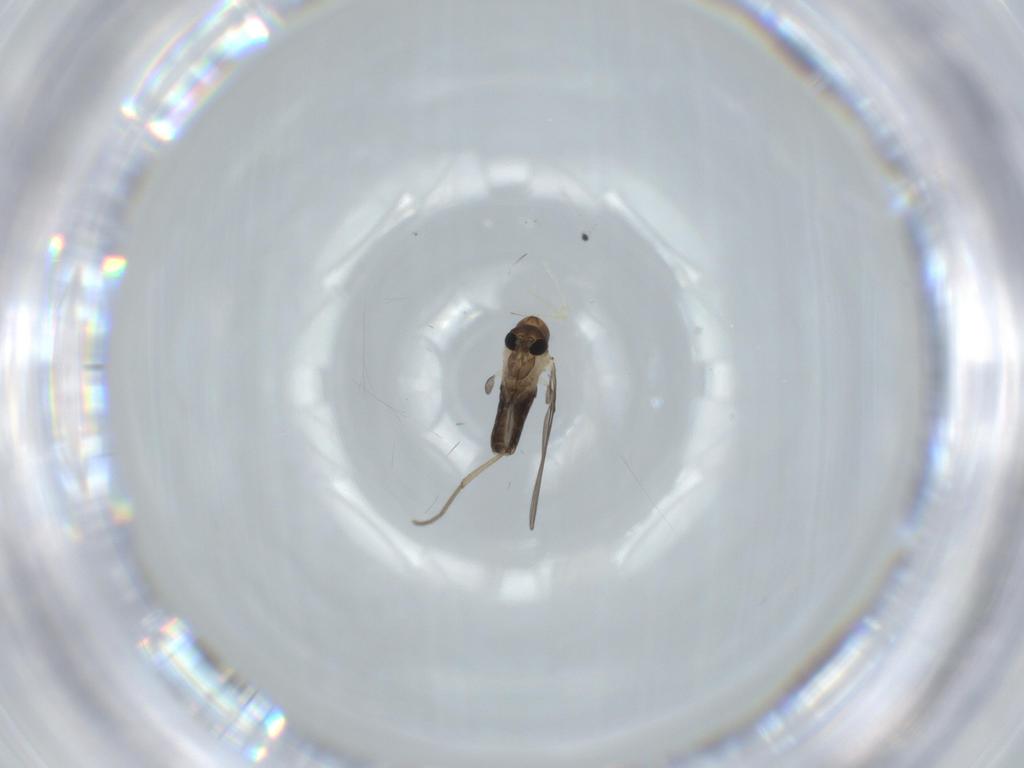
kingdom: Animalia
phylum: Arthropoda
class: Insecta
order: Diptera
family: Psychodidae
